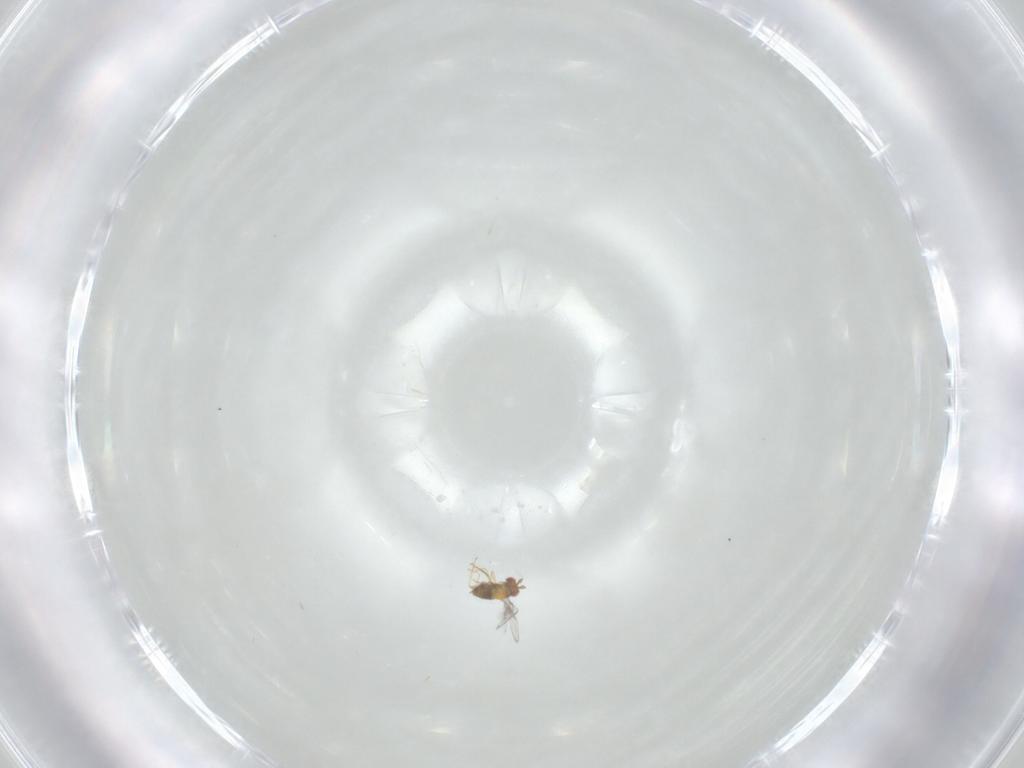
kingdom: Animalia
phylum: Arthropoda
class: Insecta
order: Hymenoptera
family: Trichogrammatidae
